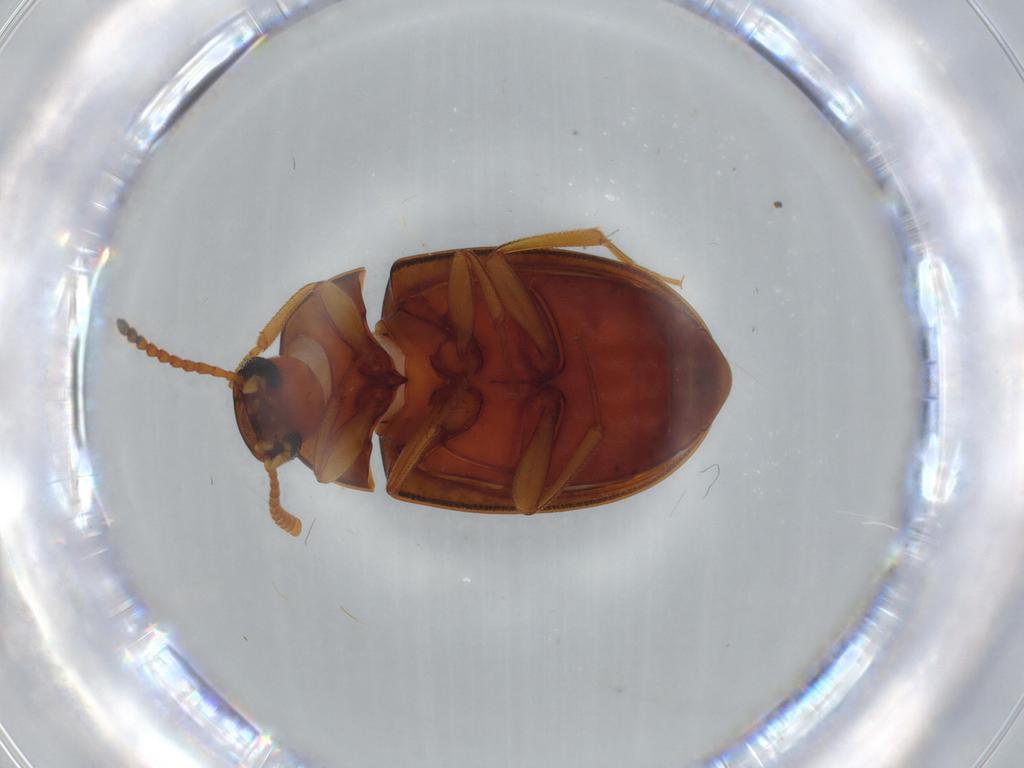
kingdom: Animalia
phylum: Arthropoda
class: Insecta
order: Coleoptera
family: Chrysomelidae
